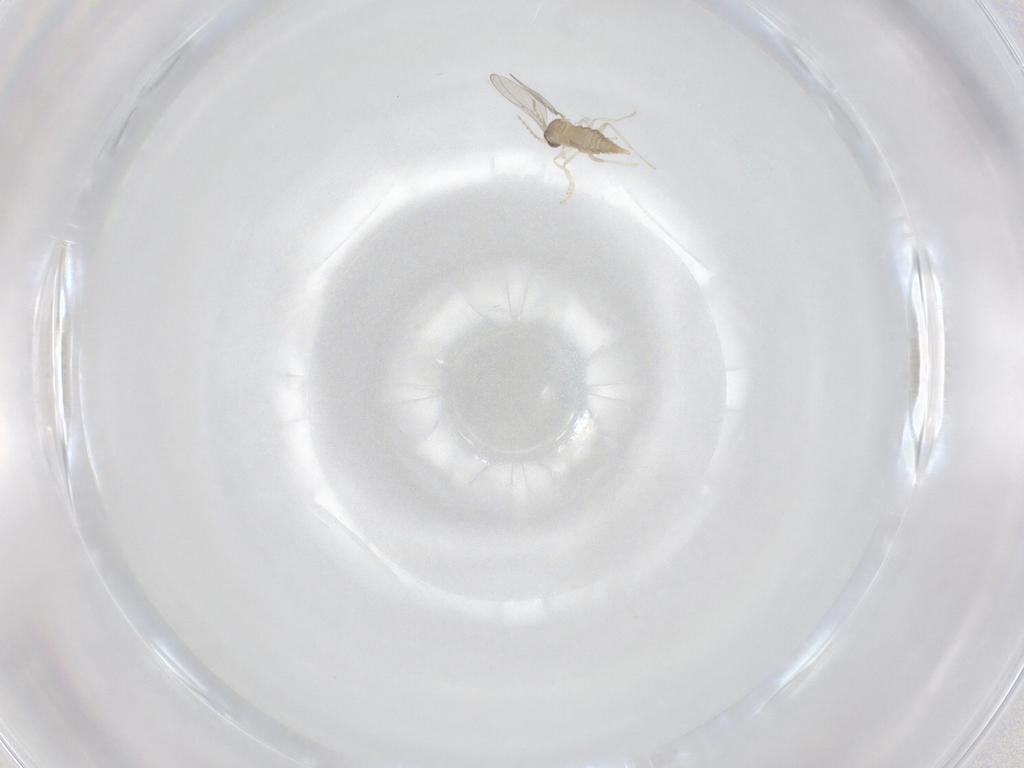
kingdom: Animalia
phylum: Arthropoda
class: Insecta
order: Diptera
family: Cecidomyiidae
